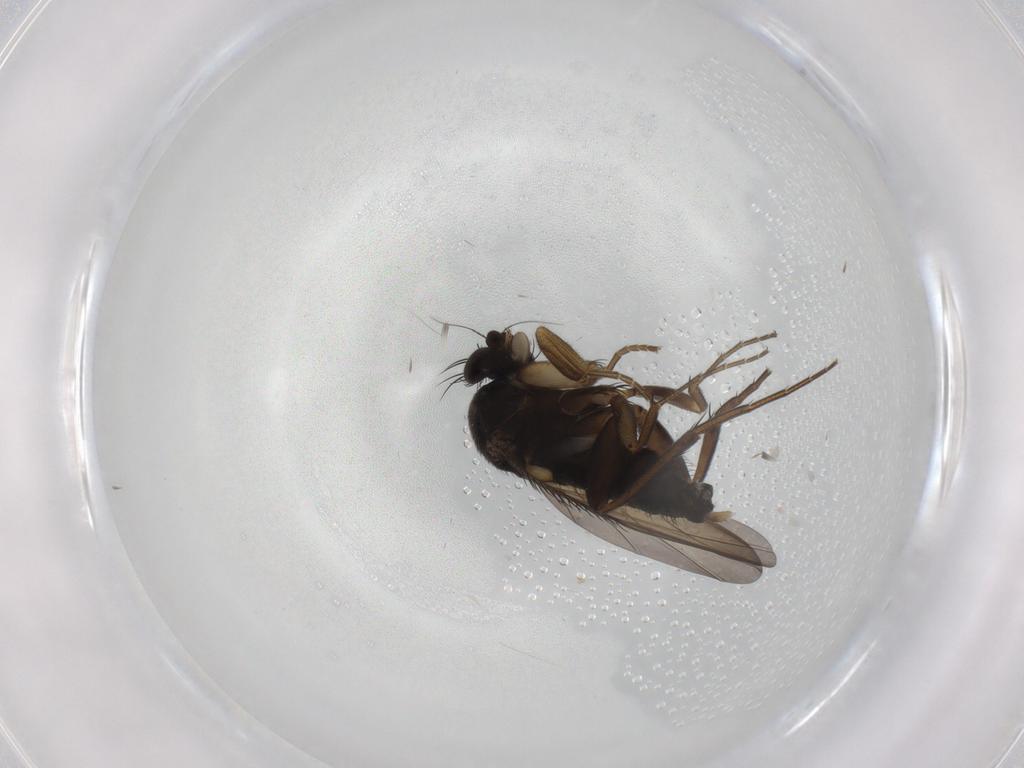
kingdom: Animalia
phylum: Arthropoda
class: Insecta
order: Diptera
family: Phoridae
